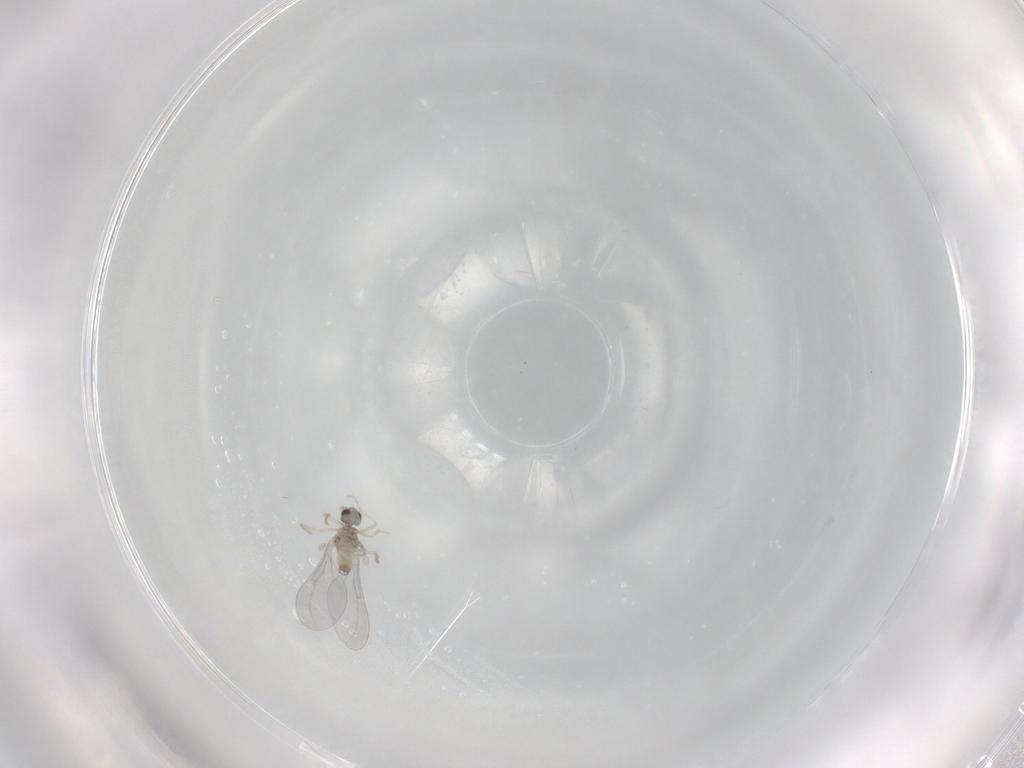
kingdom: Animalia
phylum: Arthropoda
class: Insecta
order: Diptera
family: Cecidomyiidae
